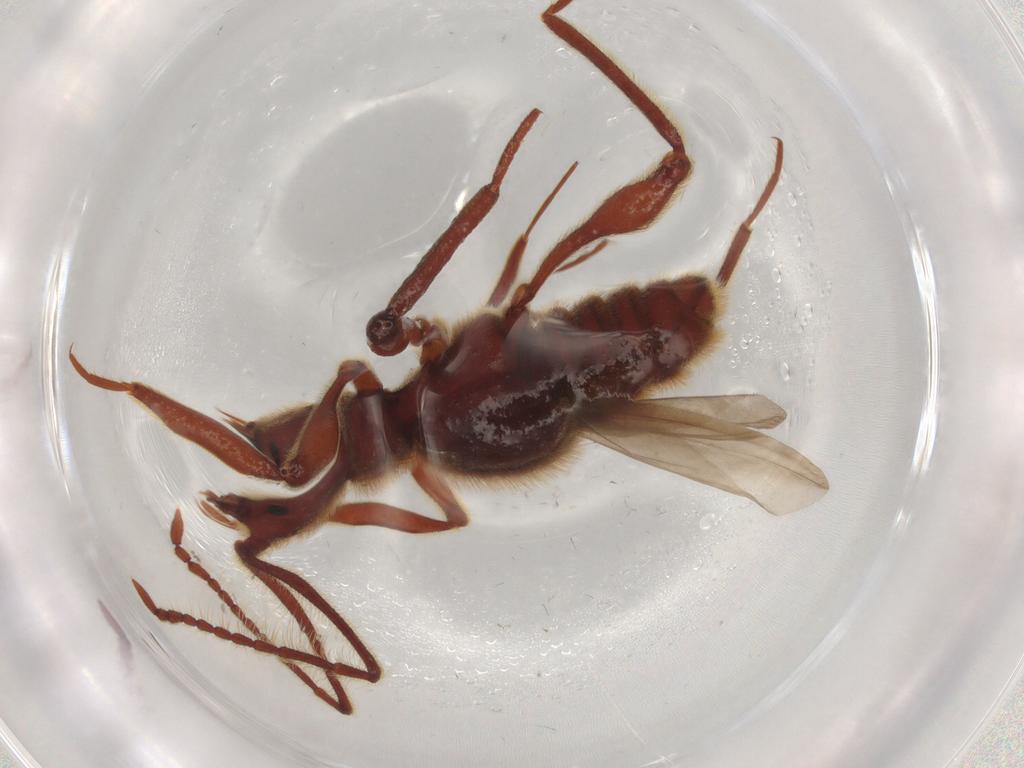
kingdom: Animalia
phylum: Arthropoda
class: Insecta
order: Coleoptera
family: Staphylinidae
